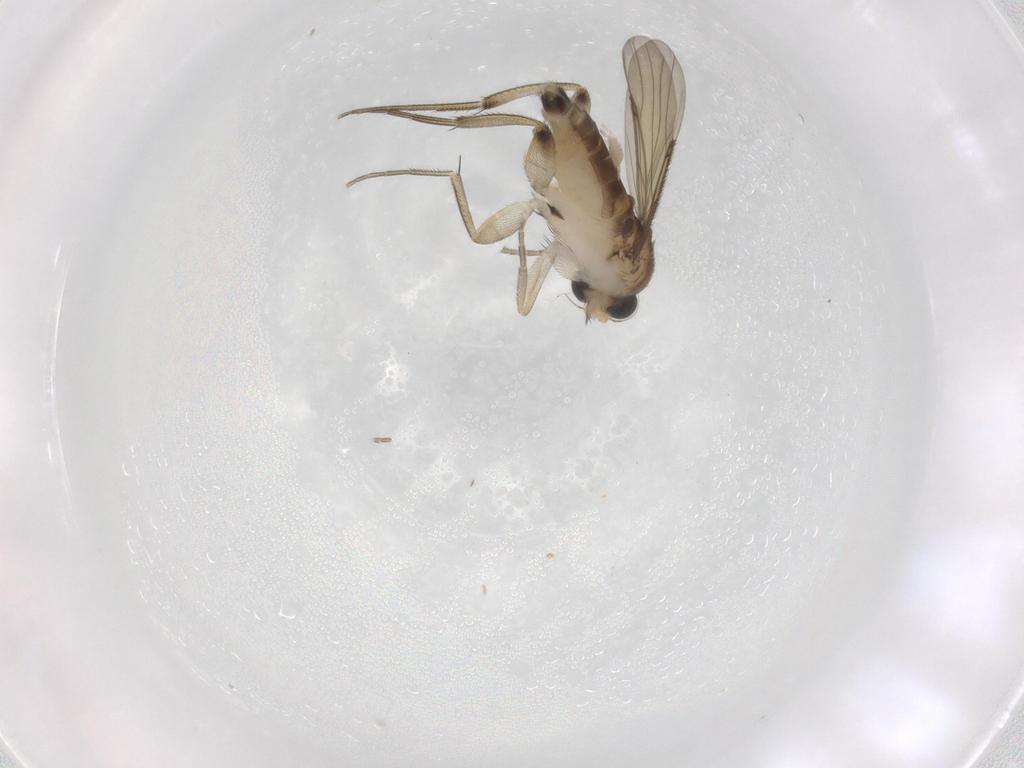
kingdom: Animalia
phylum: Arthropoda
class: Insecta
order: Diptera
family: Phoridae
